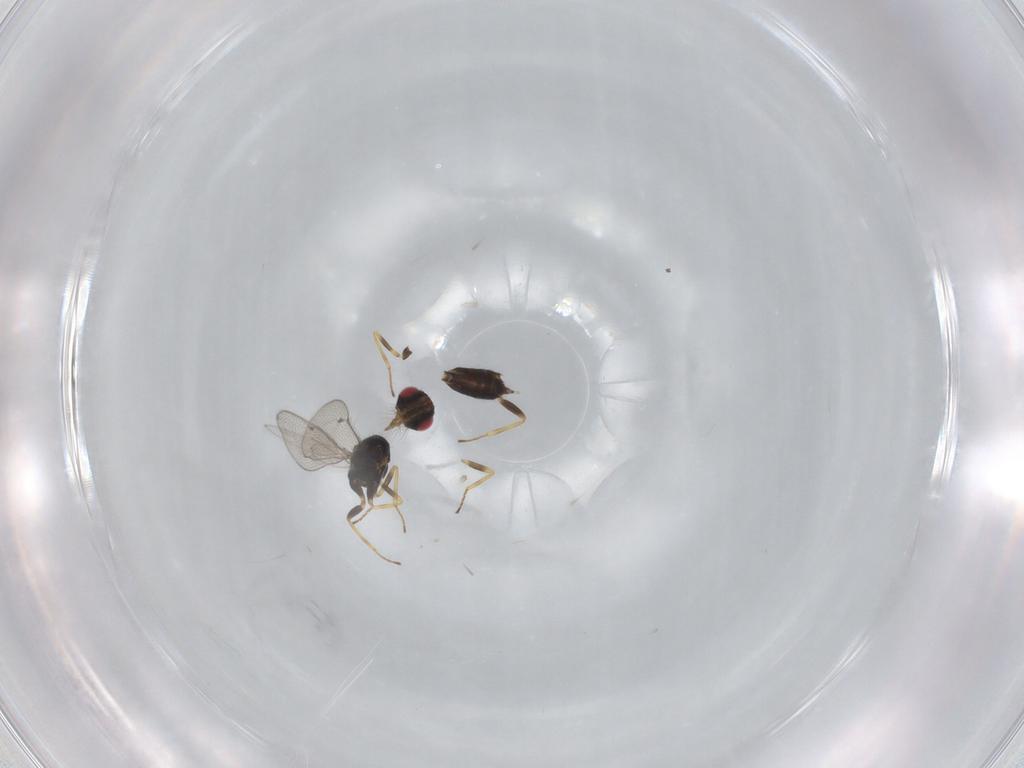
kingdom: Animalia
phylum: Arthropoda
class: Insecta
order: Hymenoptera
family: Eulophidae
